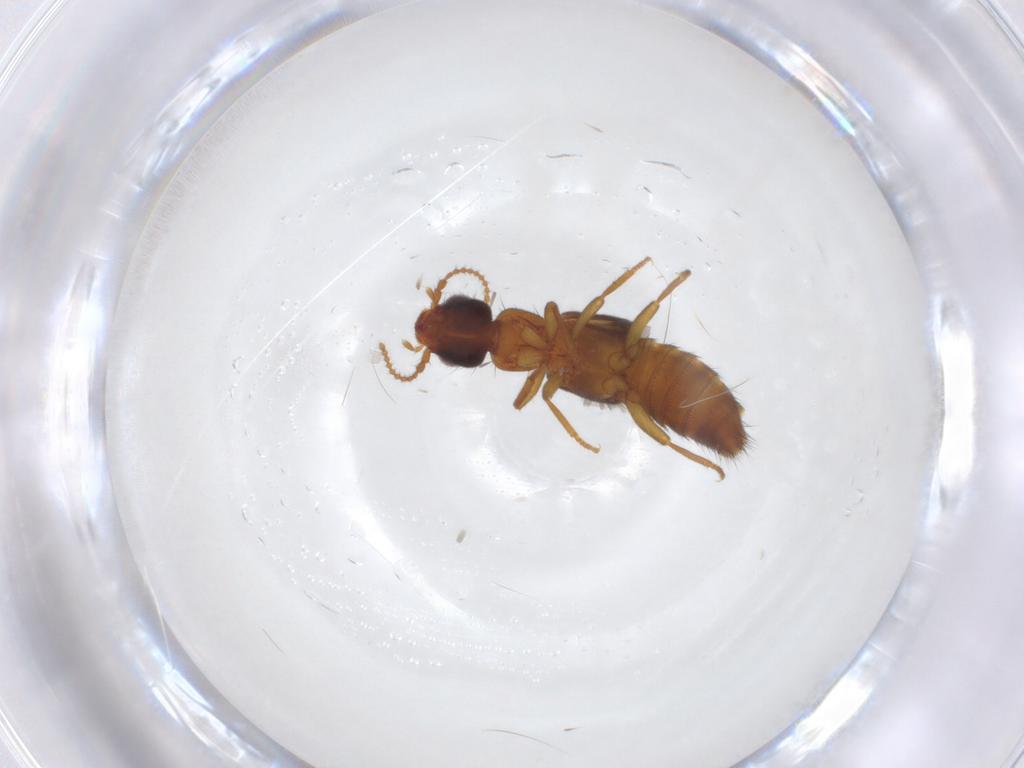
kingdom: Animalia
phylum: Arthropoda
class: Insecta
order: Coleoptera
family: Staphylinidae
